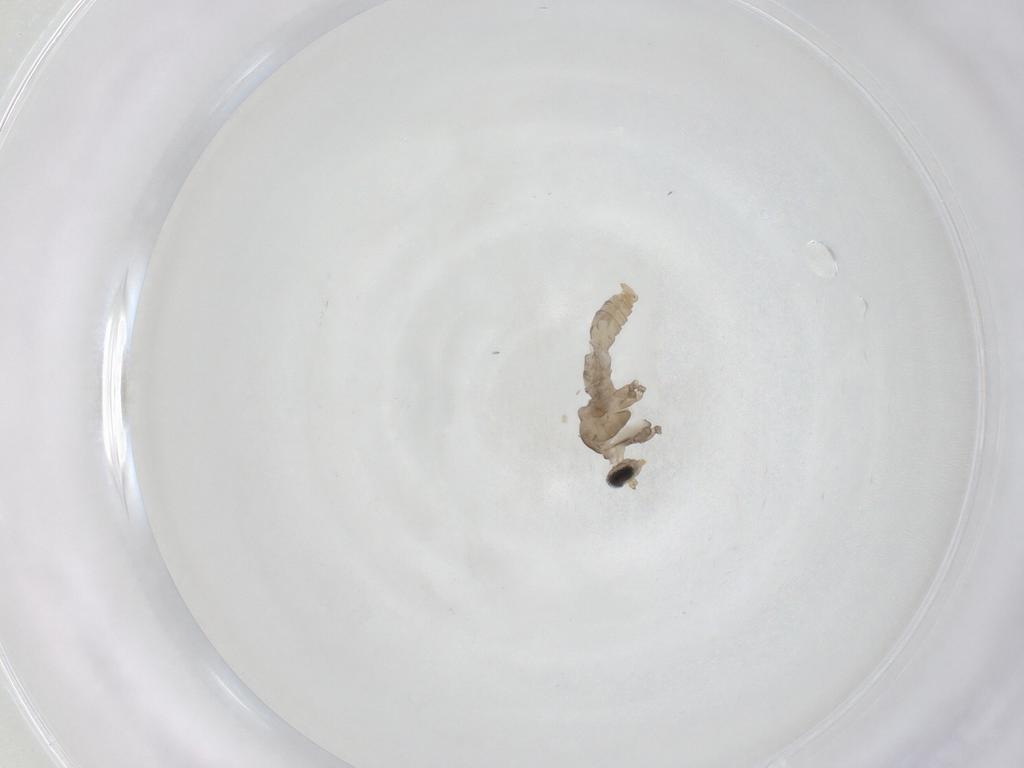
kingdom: Animalia
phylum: Arthropoda
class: Insecta
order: Diptera
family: Cecidomyiidae
